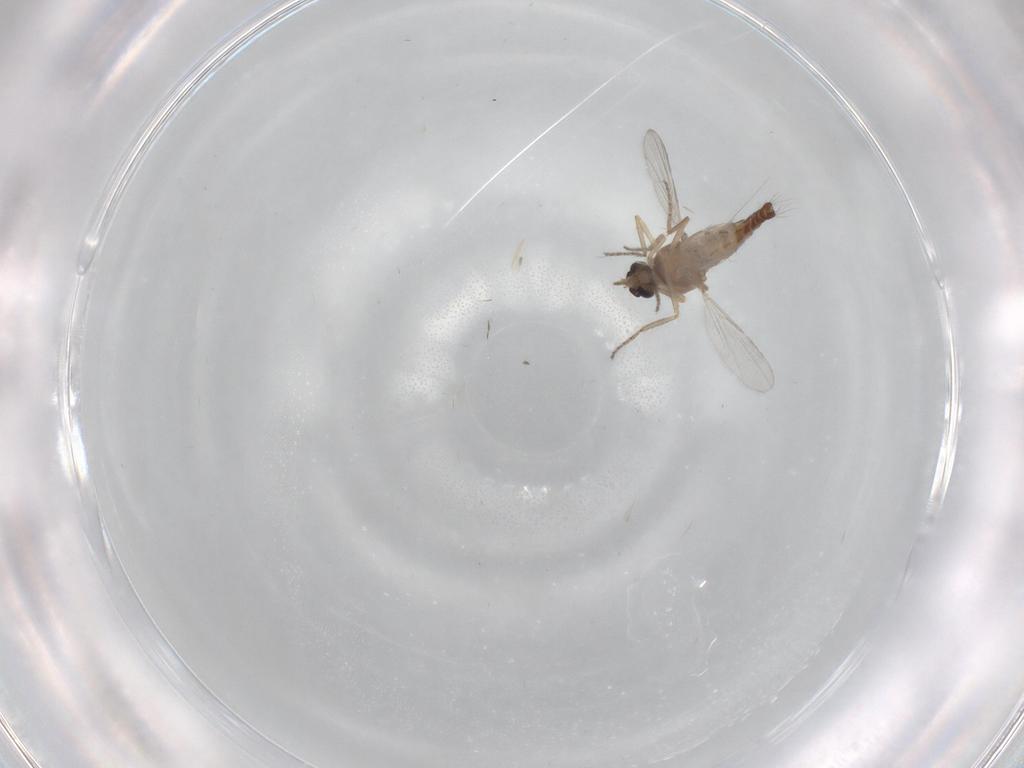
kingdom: Animalia
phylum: Arthropoda
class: Insecta
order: Diptera
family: Ceratopogonidae
